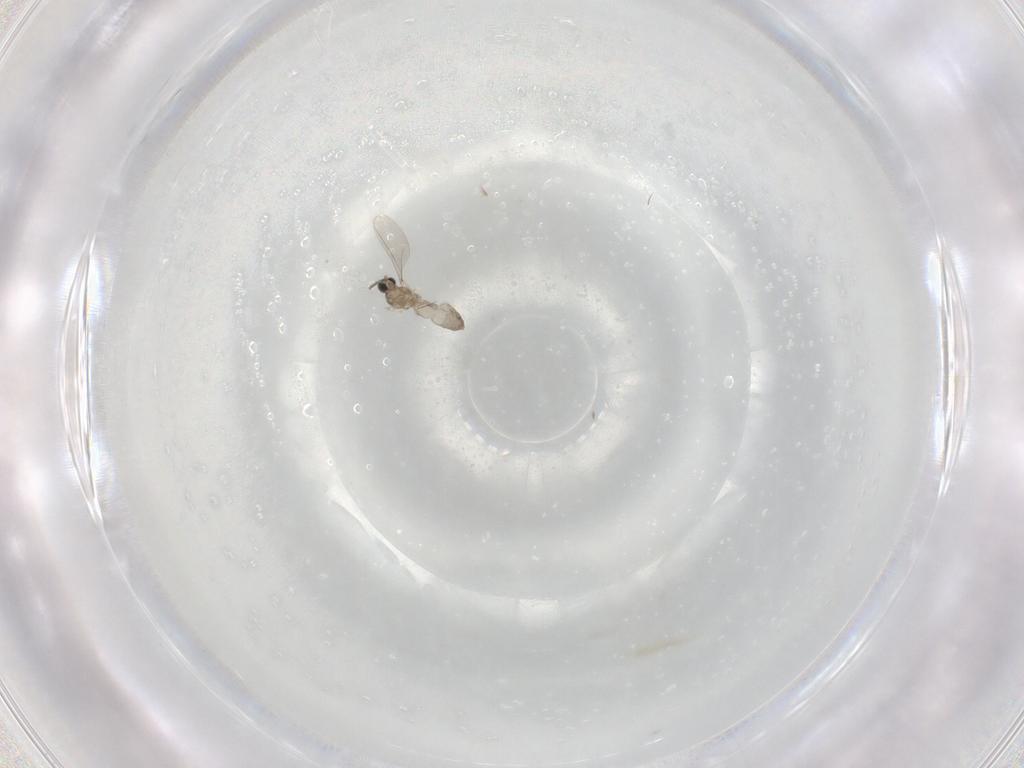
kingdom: Animalia
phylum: Arthropoda
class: Insecta
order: Diptera
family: Cecidomyiidae
